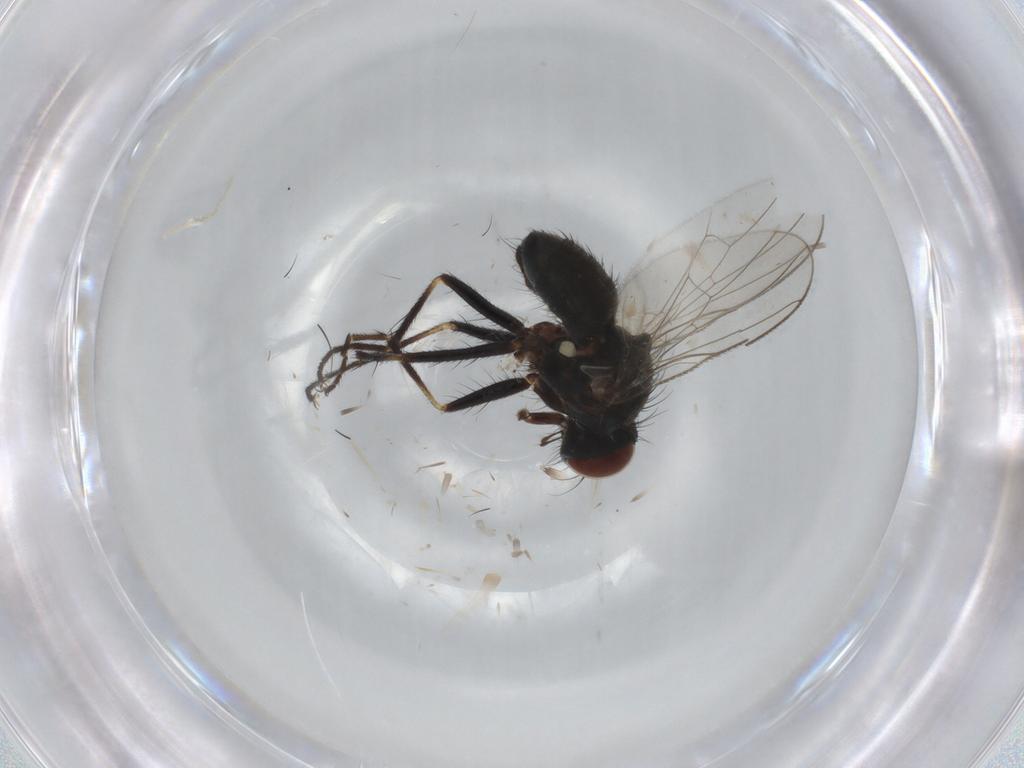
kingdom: Animalia
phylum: Arthropoda
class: Insecta
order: Diptera
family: Muscidae
